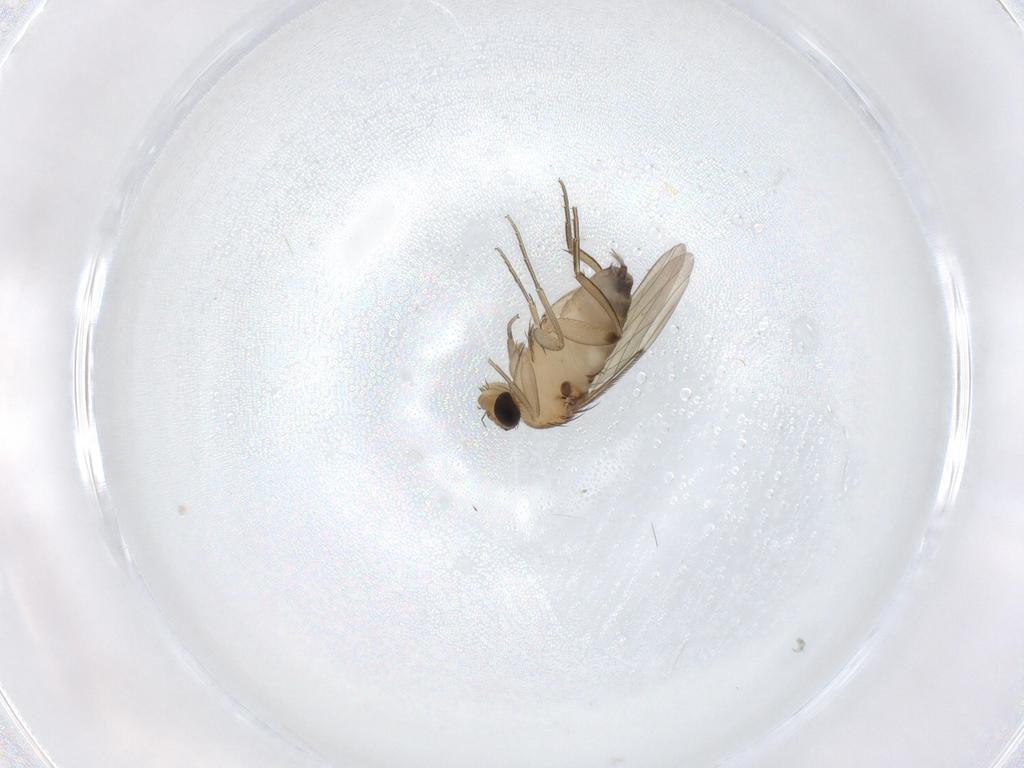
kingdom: Animalia
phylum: Arthropoda
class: Insecta
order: Diptera
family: Phoridae
